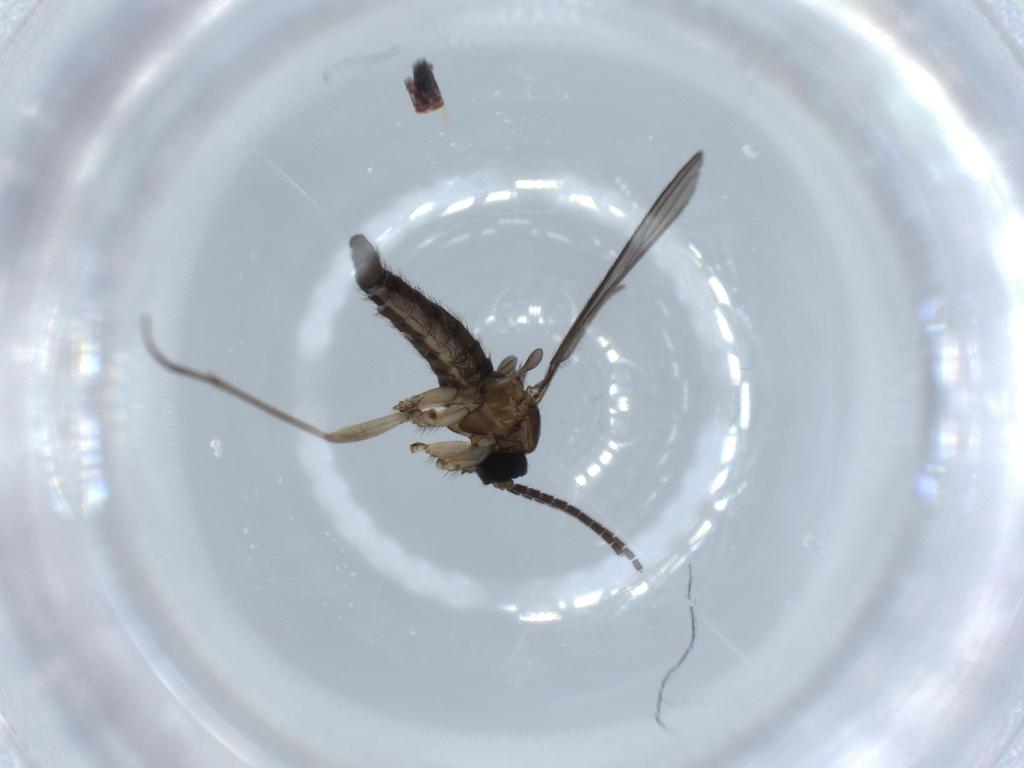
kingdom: Animalia
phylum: Arthropoda
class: Insecta
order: Diptera
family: Sciaridae
